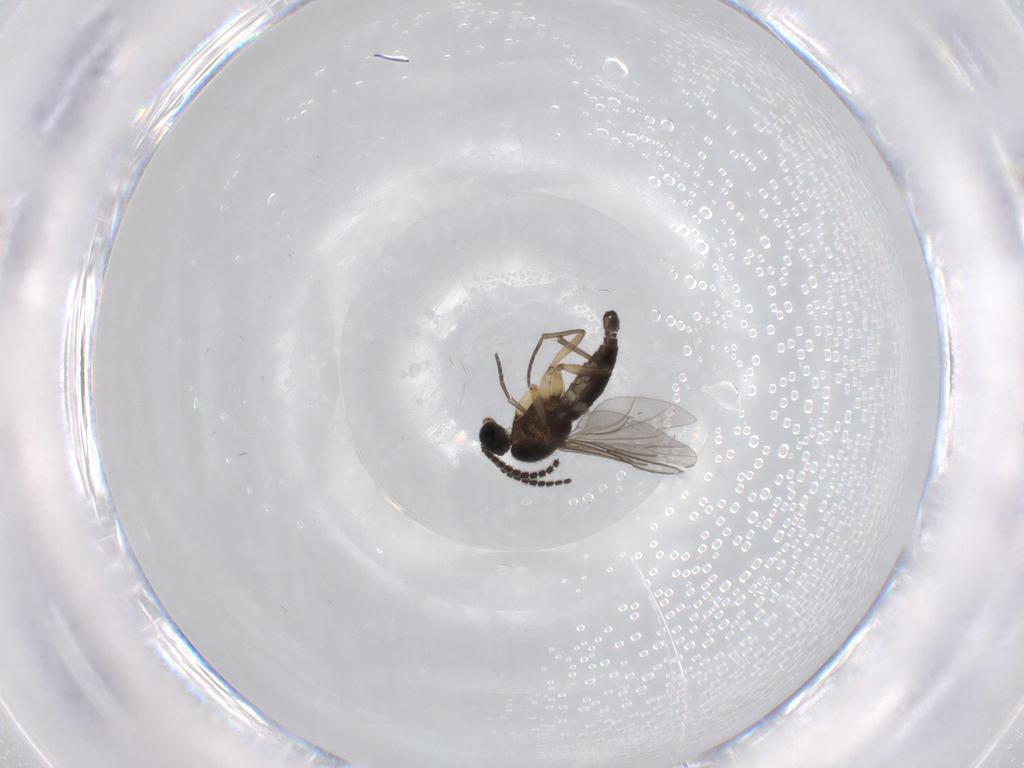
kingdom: Animalia
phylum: Arthropoda
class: Insecta
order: Diptera
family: Sciaridae
